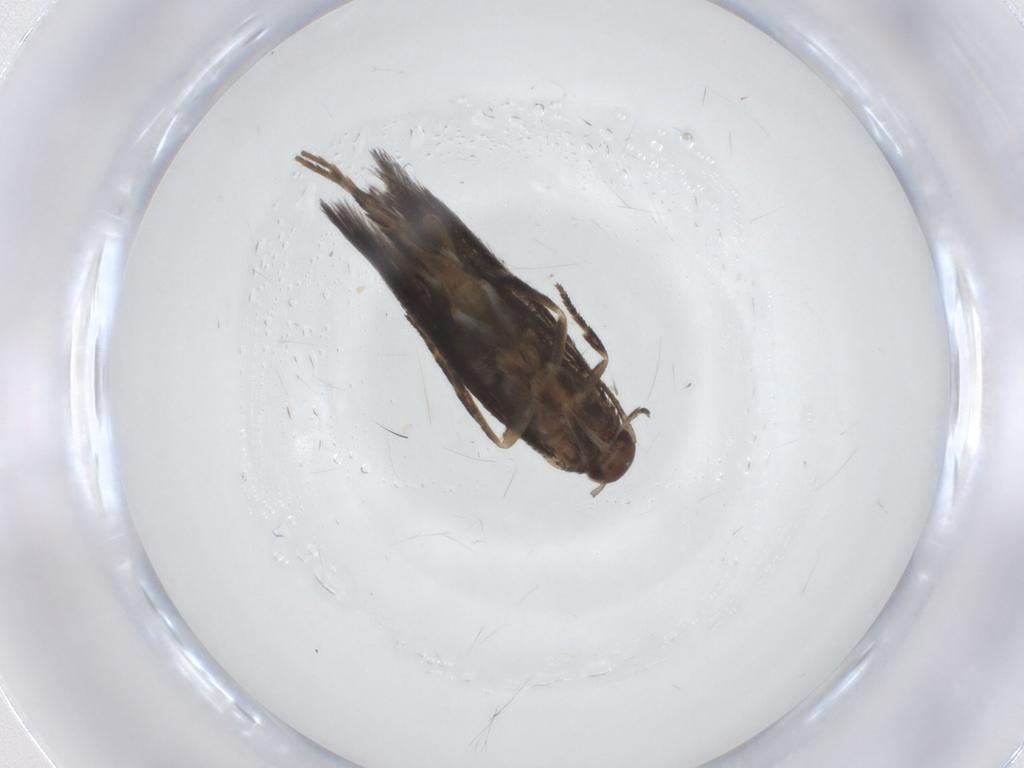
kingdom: Animalia
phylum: Arthropoda
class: Insecta
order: Lepidoptera
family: Elachistidae
